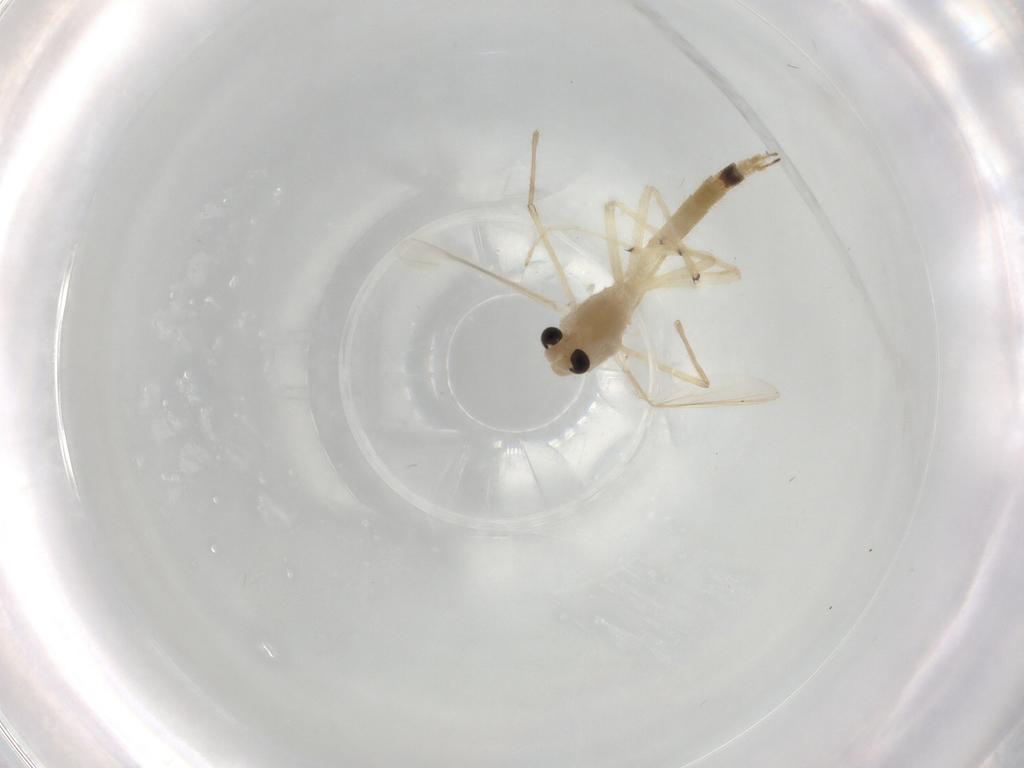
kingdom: Animalia
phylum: Arthropoda
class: Insecta
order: Diptera
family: Chironomidae
